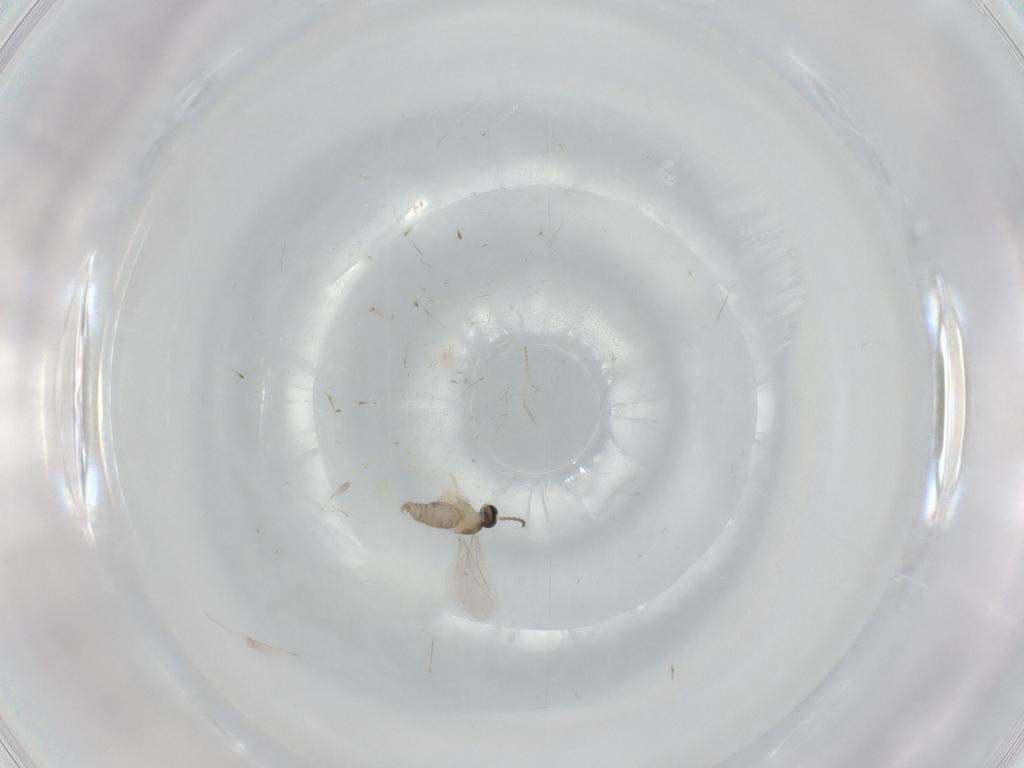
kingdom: Animalia
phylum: Arthropoda
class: Insecta
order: Diptera
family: Cecidomyiidae
